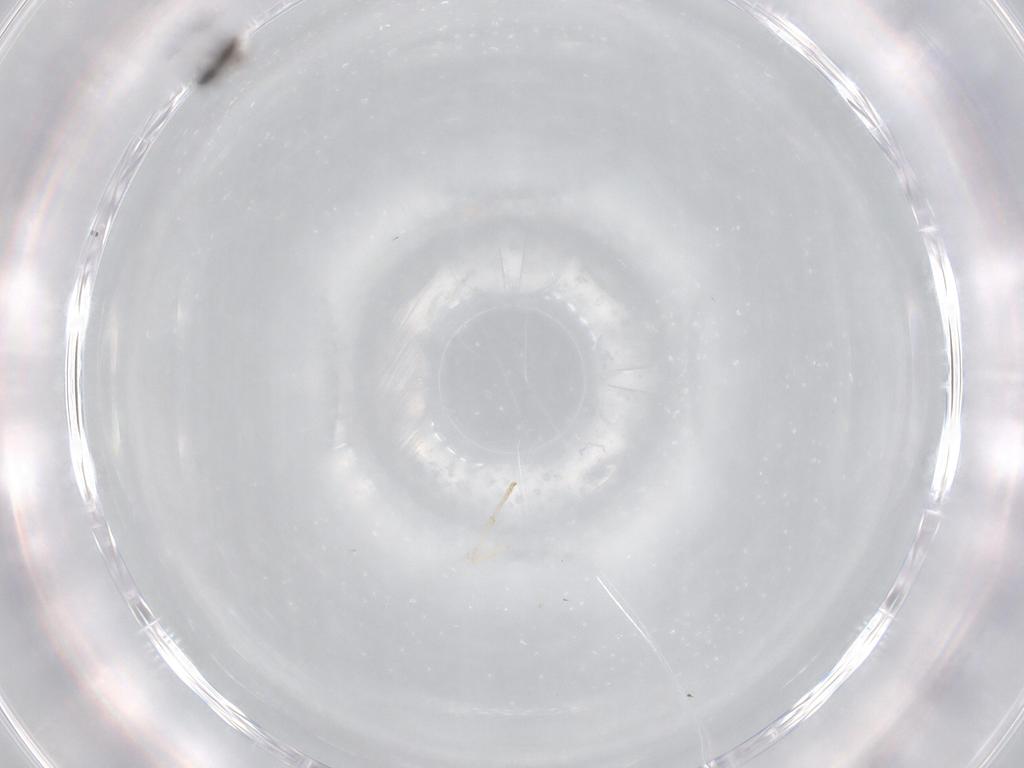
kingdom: Animalia
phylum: Arthropoda
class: Insecta
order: Hymenoptera
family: Scelionidae
